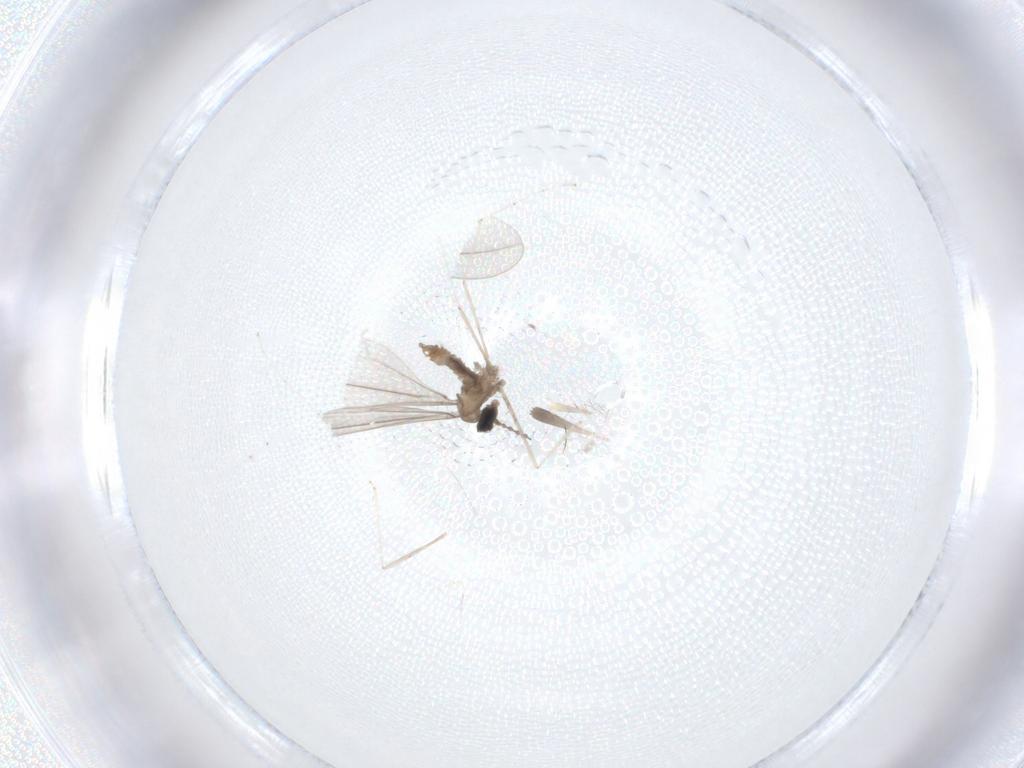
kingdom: Animalia
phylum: Arthropoda
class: Insecta
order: Diptera
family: Cecidomyiidae
